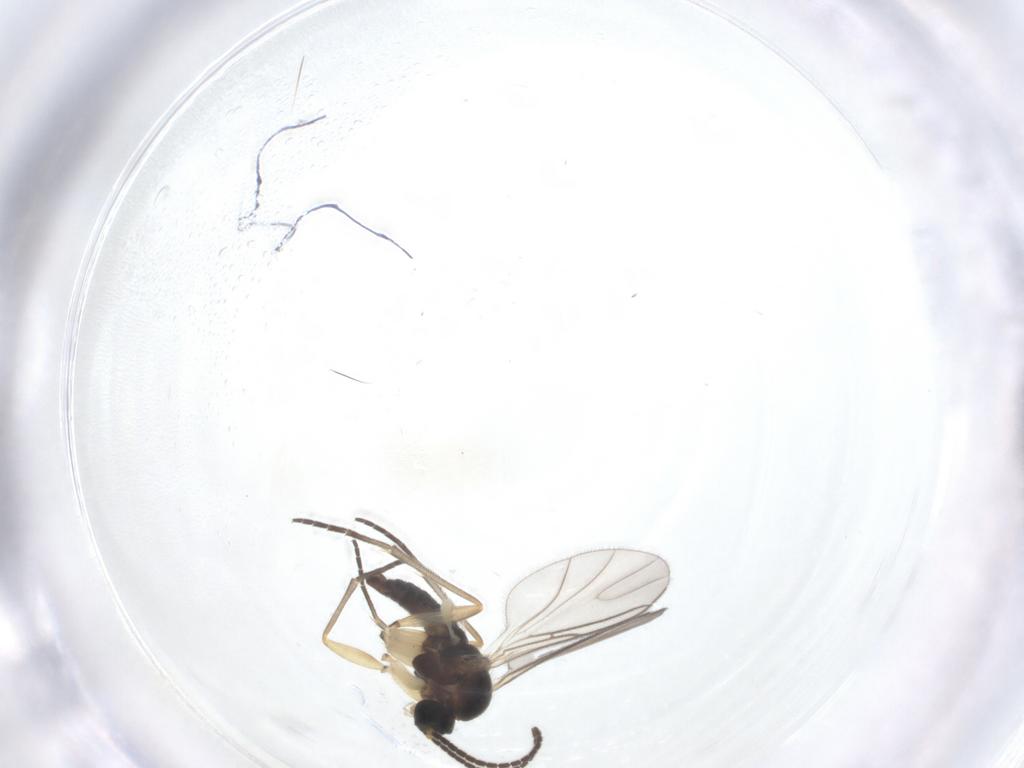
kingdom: Animalia
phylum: Arthropoda
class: Insecta
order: Diptera
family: Sciaridae
